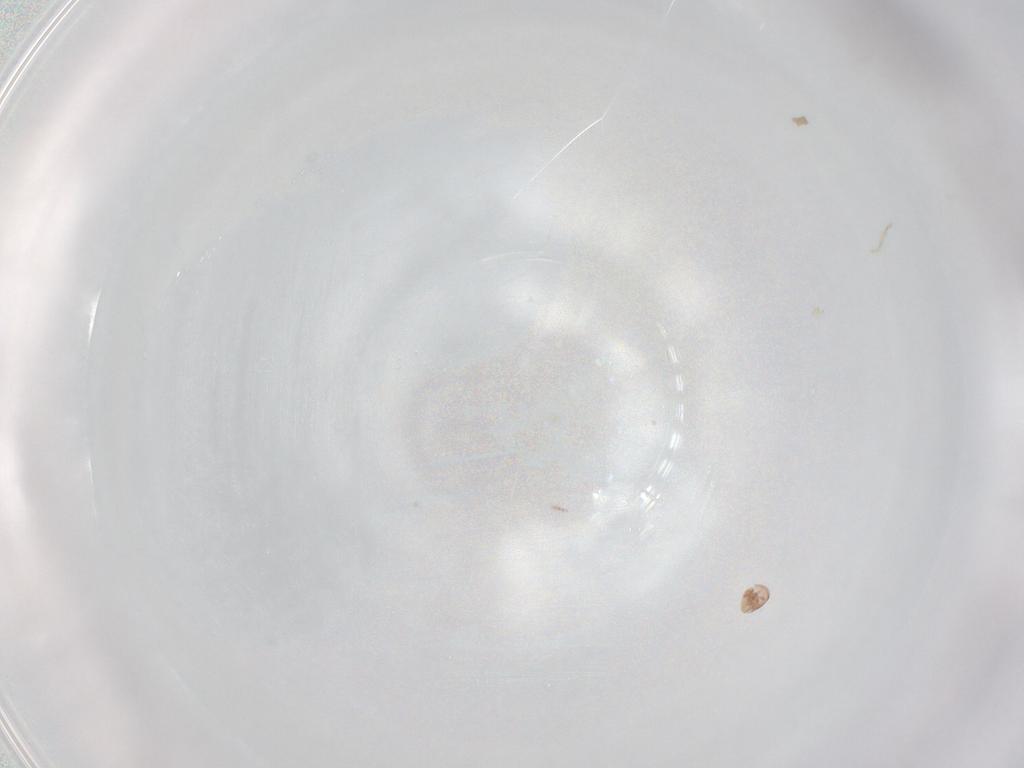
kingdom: Animalia
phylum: Arthropoda
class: Arachnida
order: Trombidiformes
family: Scutacaridae
